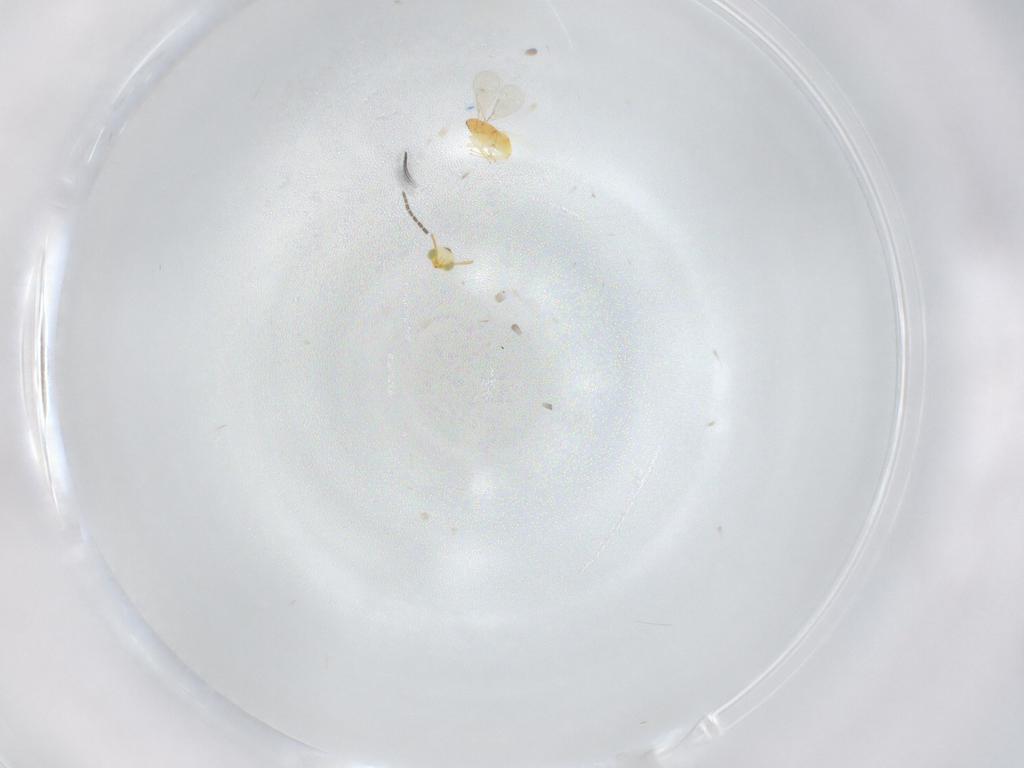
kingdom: Animalia
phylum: Arthropoda
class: Insecta
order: Hymenoptera
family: Aphelinidae
